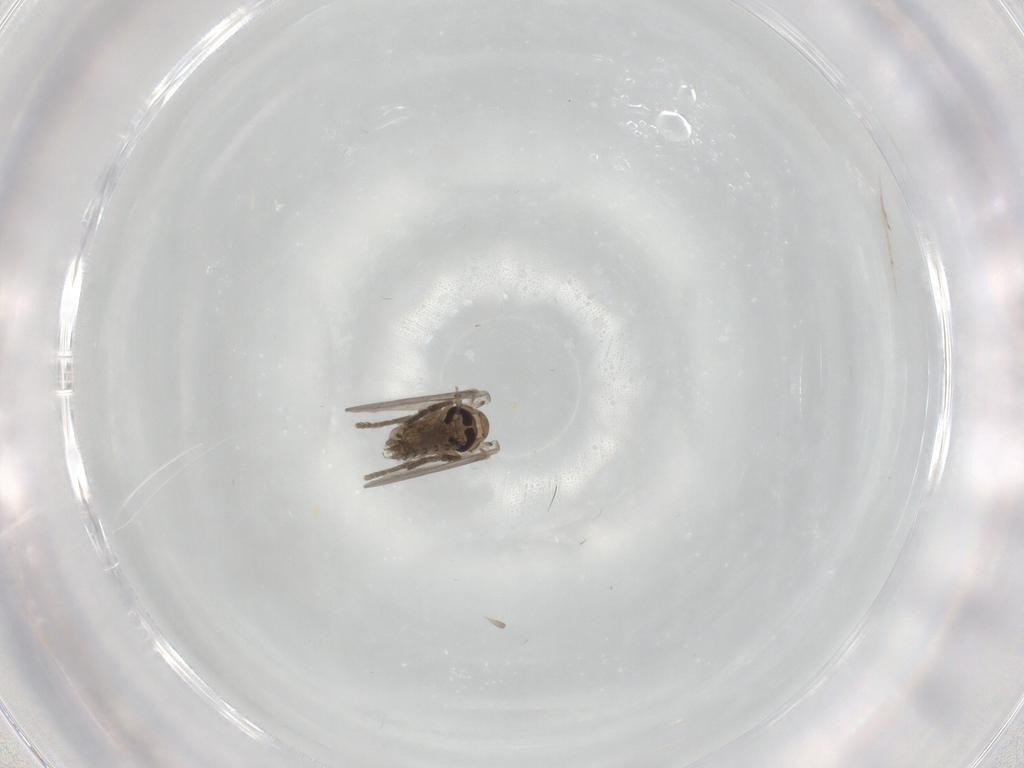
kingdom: Animalia
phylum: Arthropoda
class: Insecta
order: Diptera
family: Psychodidae
